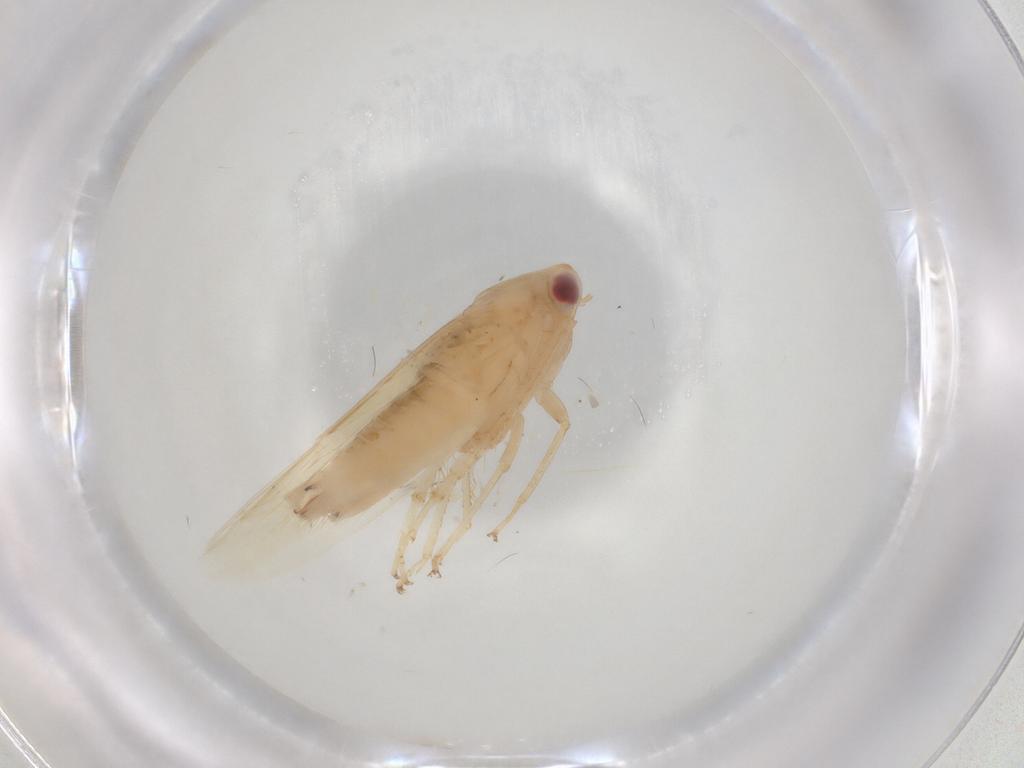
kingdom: Animalia
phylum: Arthropoda
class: Insecta
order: Hemiptera
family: Cicadellidae
